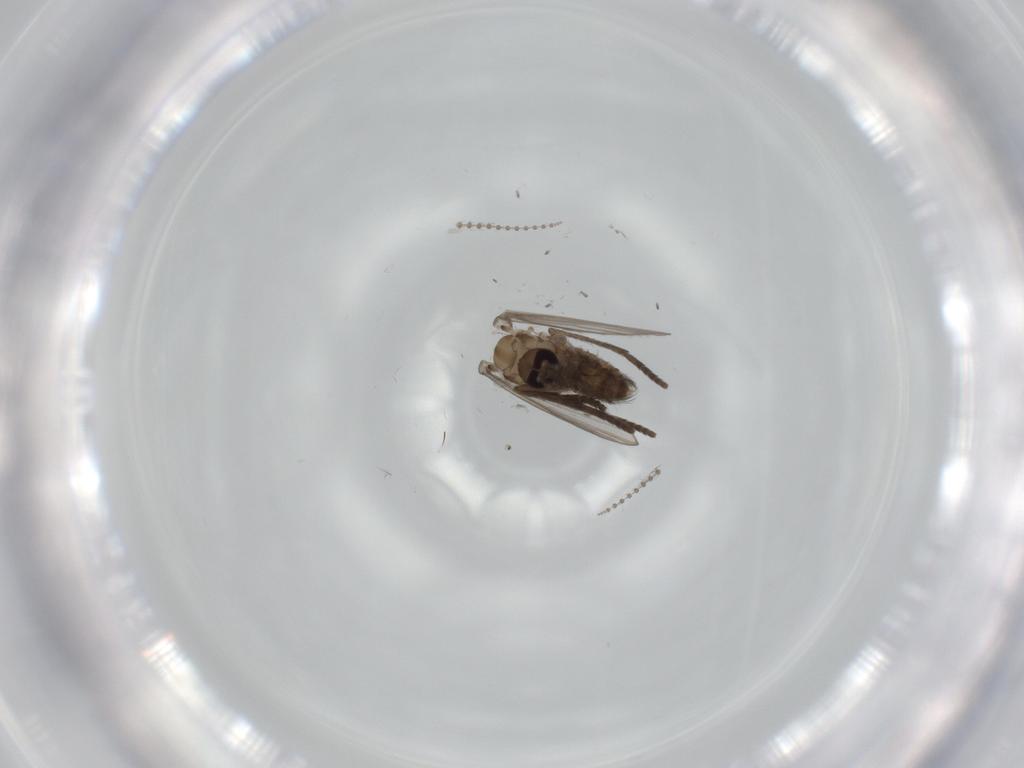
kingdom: Animalia
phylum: Arthropoda
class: Insecta
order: Diptera
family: Psychodidae
